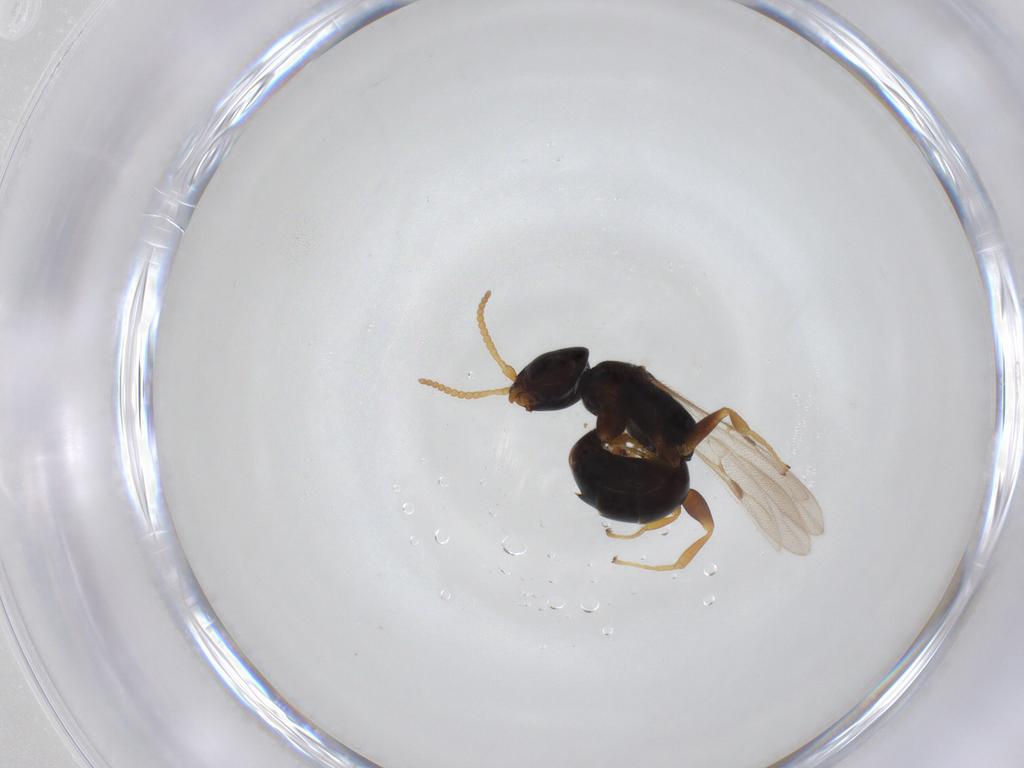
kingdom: Animalia
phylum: Arthropoda
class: Insecta
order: Hymenoptera
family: Bethylidae
